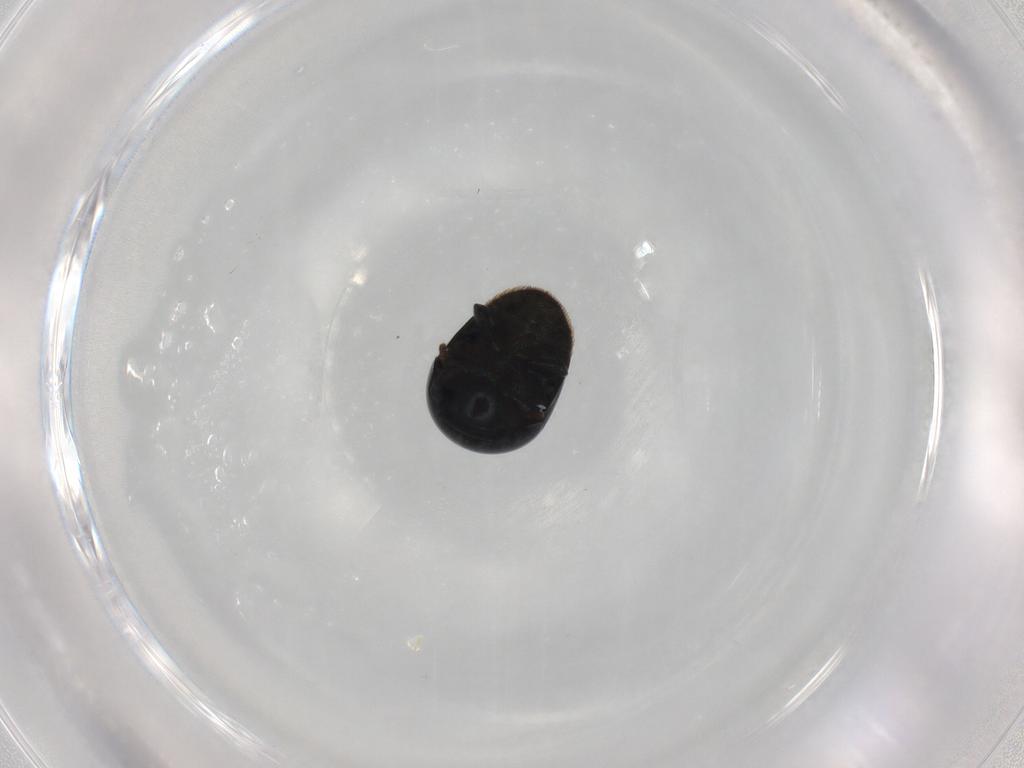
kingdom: Animalia
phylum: Arthropoda
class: Insecta
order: Coleoptera
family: Cybocephalidae
